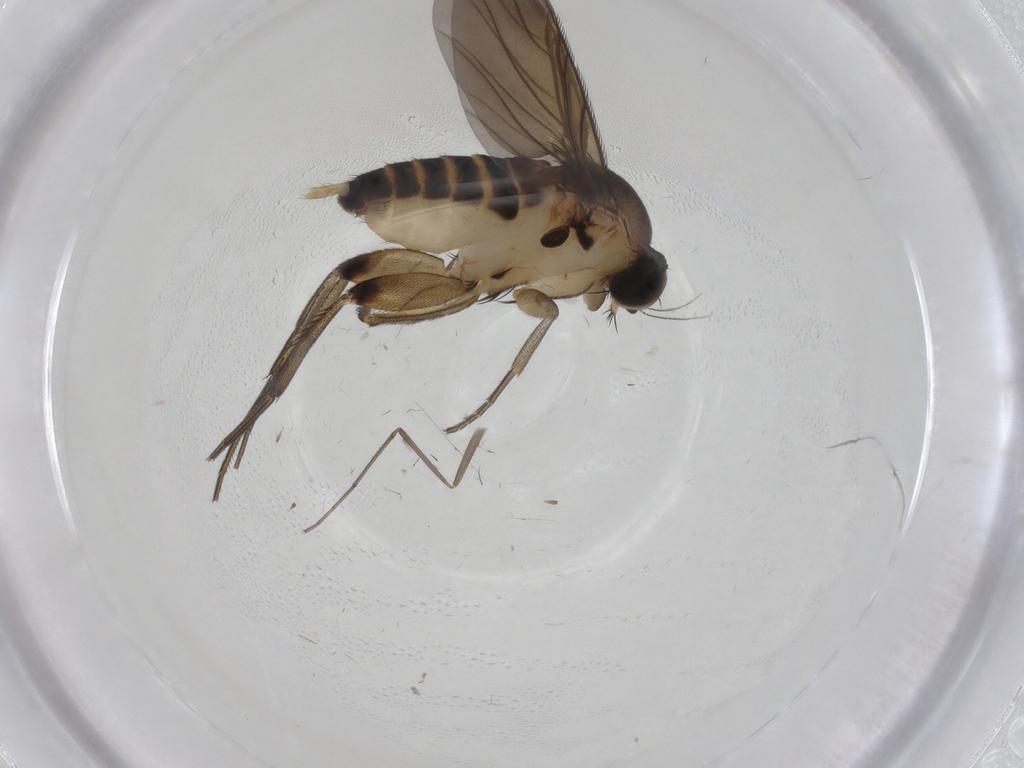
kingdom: Animalia
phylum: Arthropoda
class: Insecta
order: Diptera
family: Phoridae
